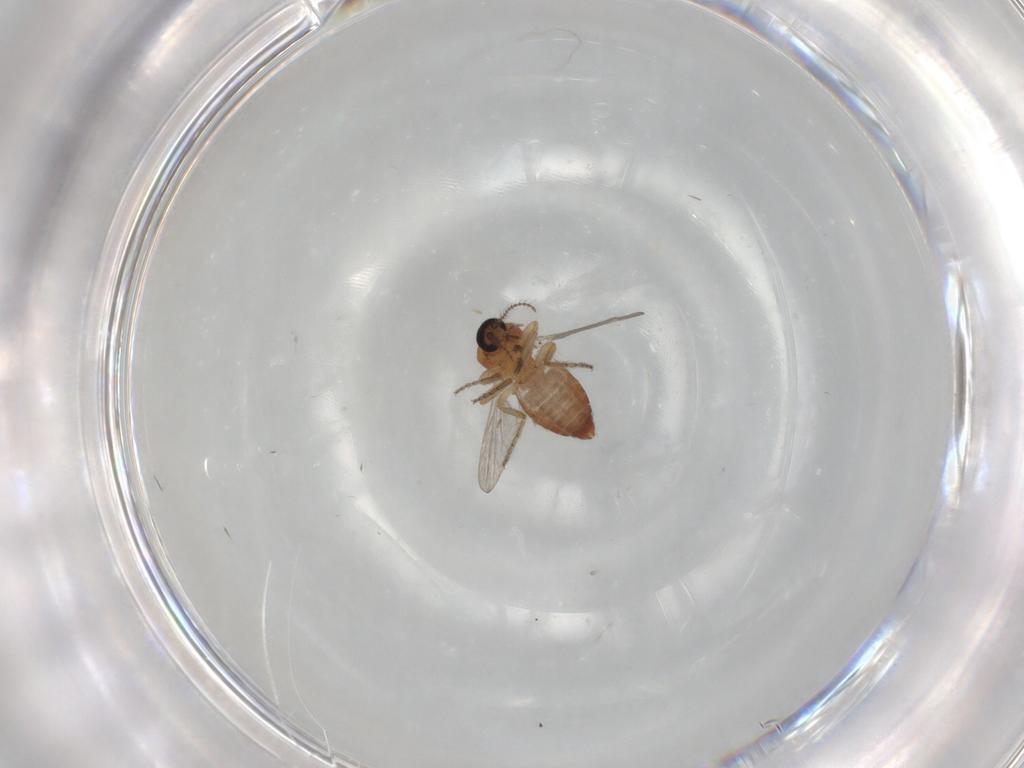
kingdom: Animalia
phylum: Arthropoda
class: Insecta
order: Diptera
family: Ceratopogonidae
